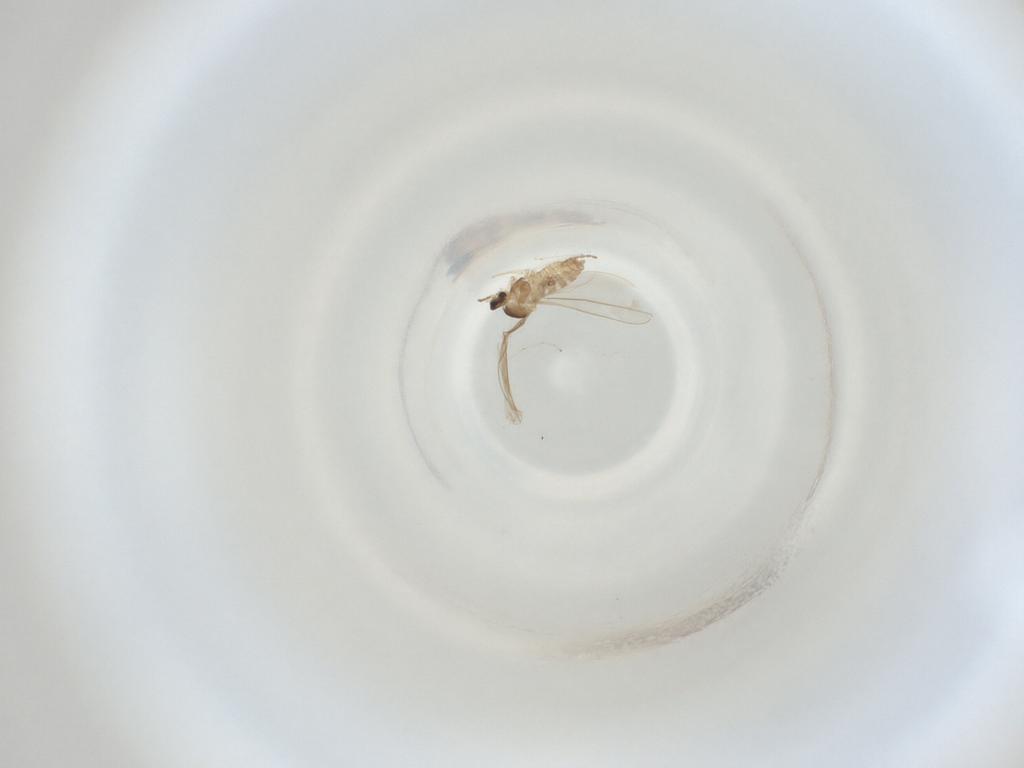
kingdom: Animalia
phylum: Arthropoda
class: Insecta
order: Diptera
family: Cecidomyiidae
